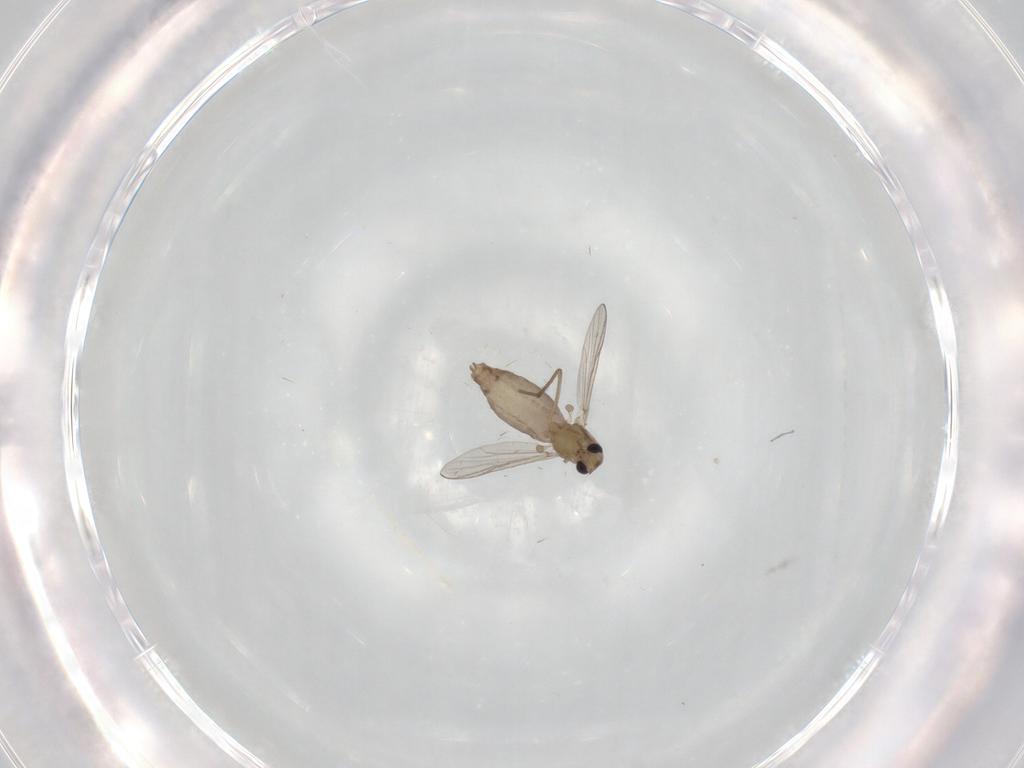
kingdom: Animalia
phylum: Arthropoda
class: Insecta
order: Diptera
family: Chironomidae
